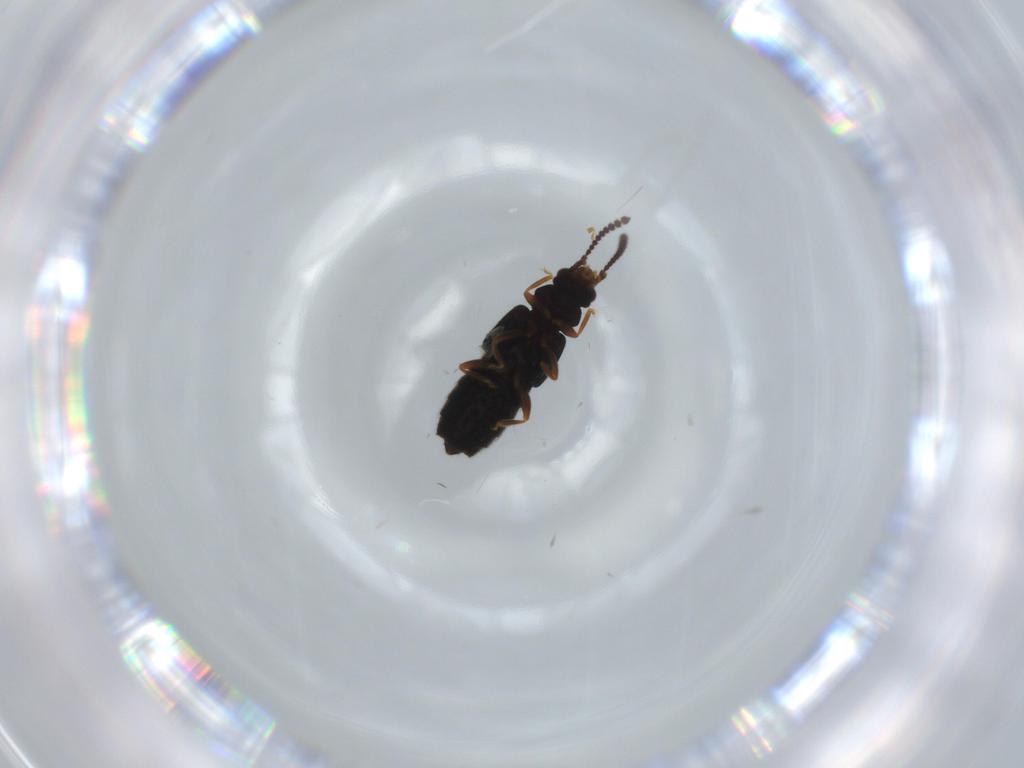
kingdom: Animalia
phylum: Arthropoda
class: Insecta
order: Coleoptera
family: Staphylinidae
